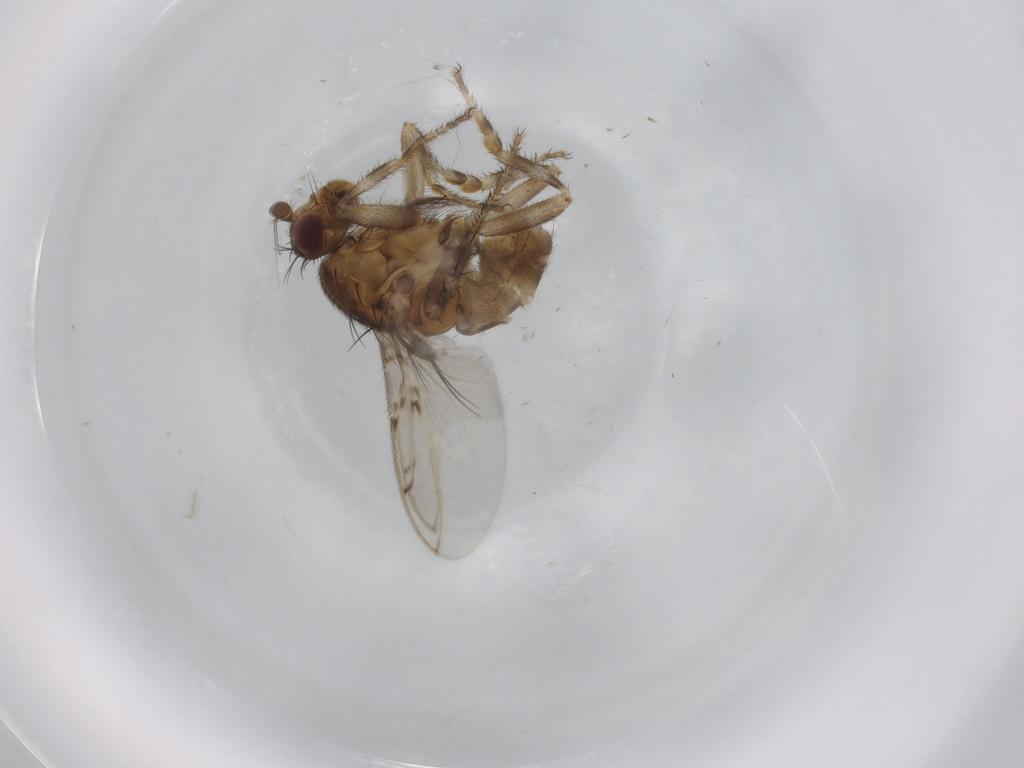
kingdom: Animalia
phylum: Arthropoda
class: Insecta
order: Diptera
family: Sphaeroceridae
